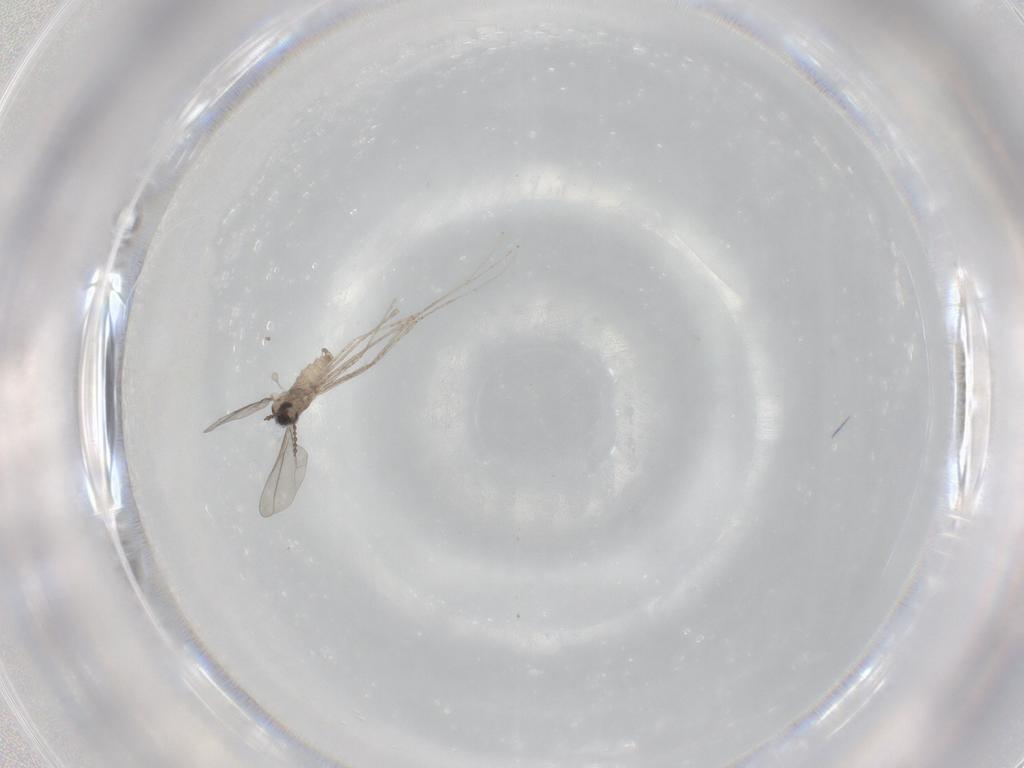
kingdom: Animalia
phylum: Arthropoda
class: Insecta
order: Diptera
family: Cecidomyiidae
